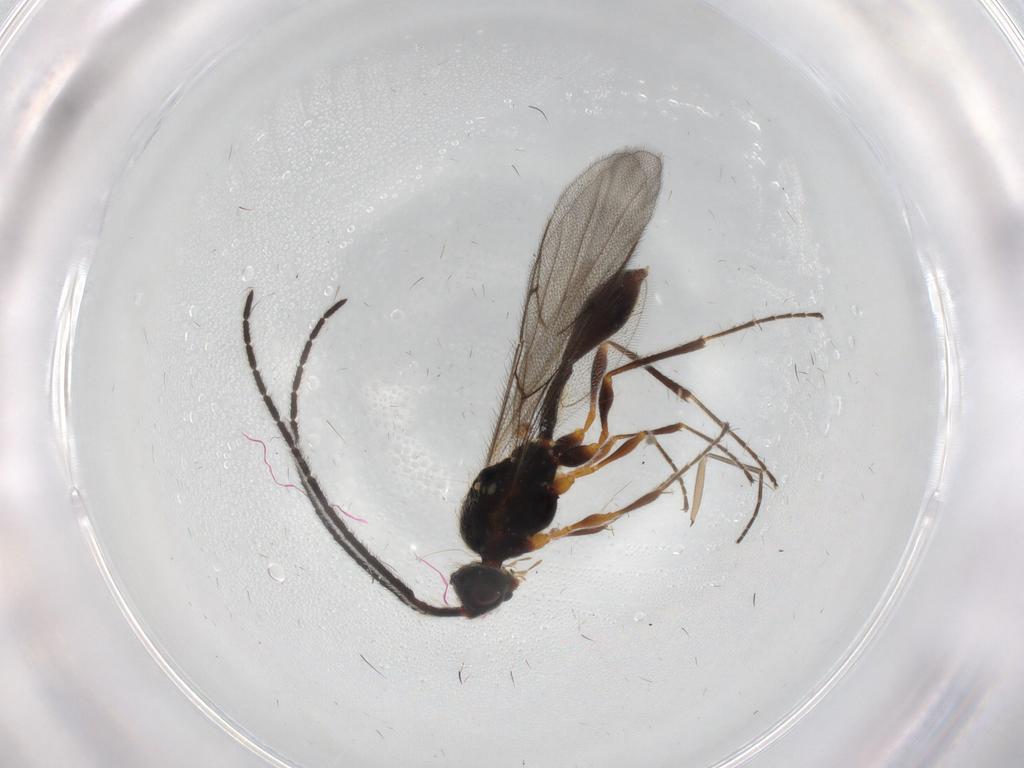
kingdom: Animalia
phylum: Arthropoda
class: Insecta
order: Hymenoptera
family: Diapriidae
